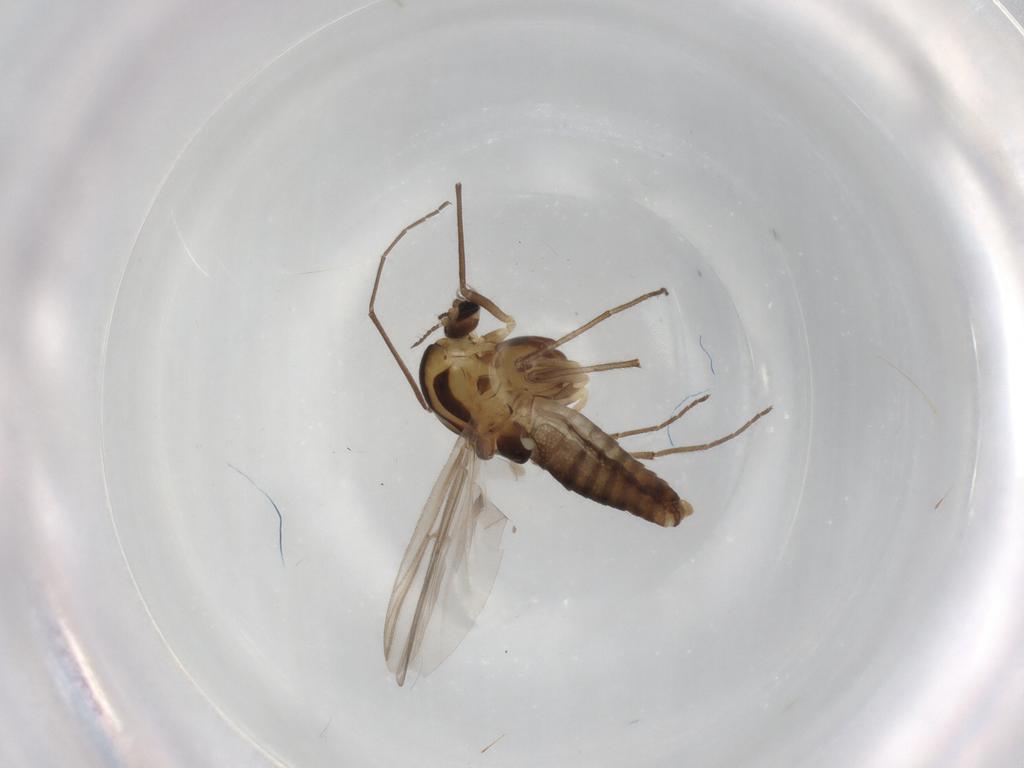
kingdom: Animalia
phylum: Arthropoda
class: Insecta
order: Diptera
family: Chironomidae
